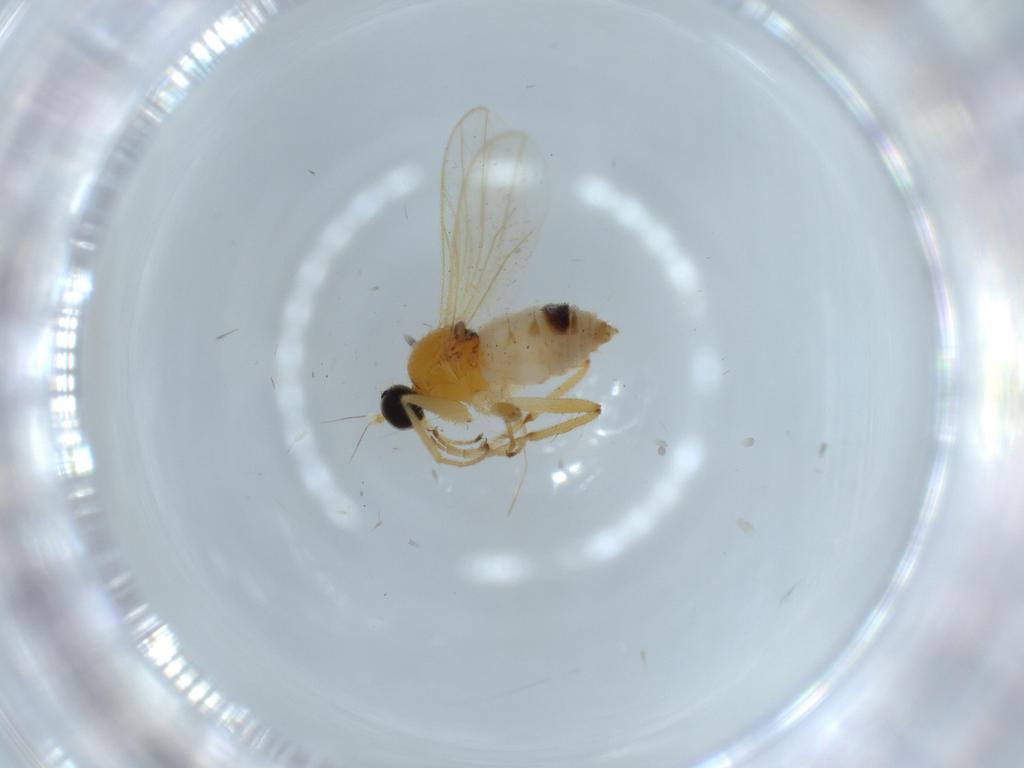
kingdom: Animalia
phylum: Arthropoda
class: Insecta
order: Diptera
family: Hybotidae
